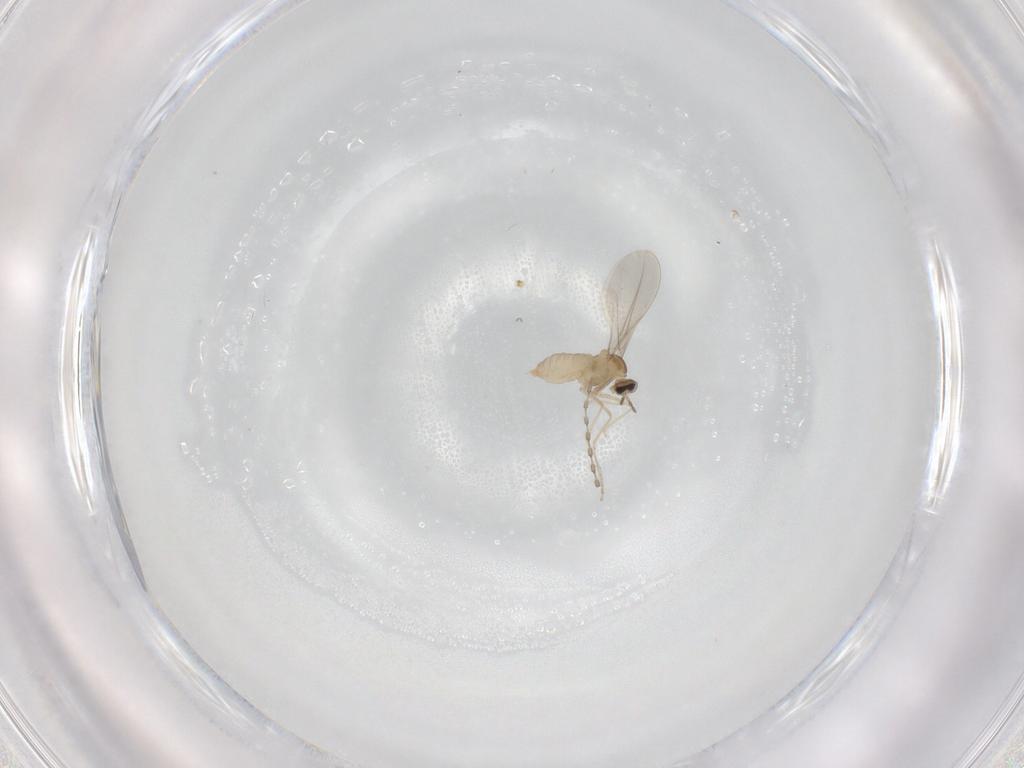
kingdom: Animalia
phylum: Arthropoda
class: Insecta
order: Diptera
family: Cecidomyiidae
